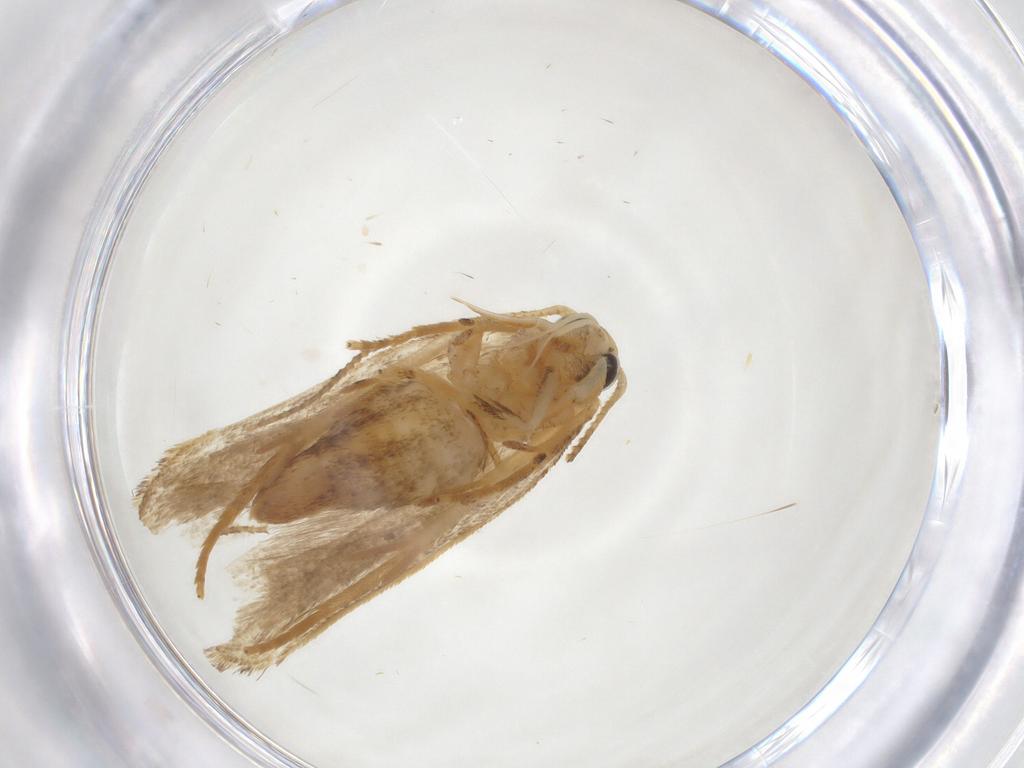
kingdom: Animalia
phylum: Arthropoda
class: Insecta
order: Lepidoptera
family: Gelechiidae
